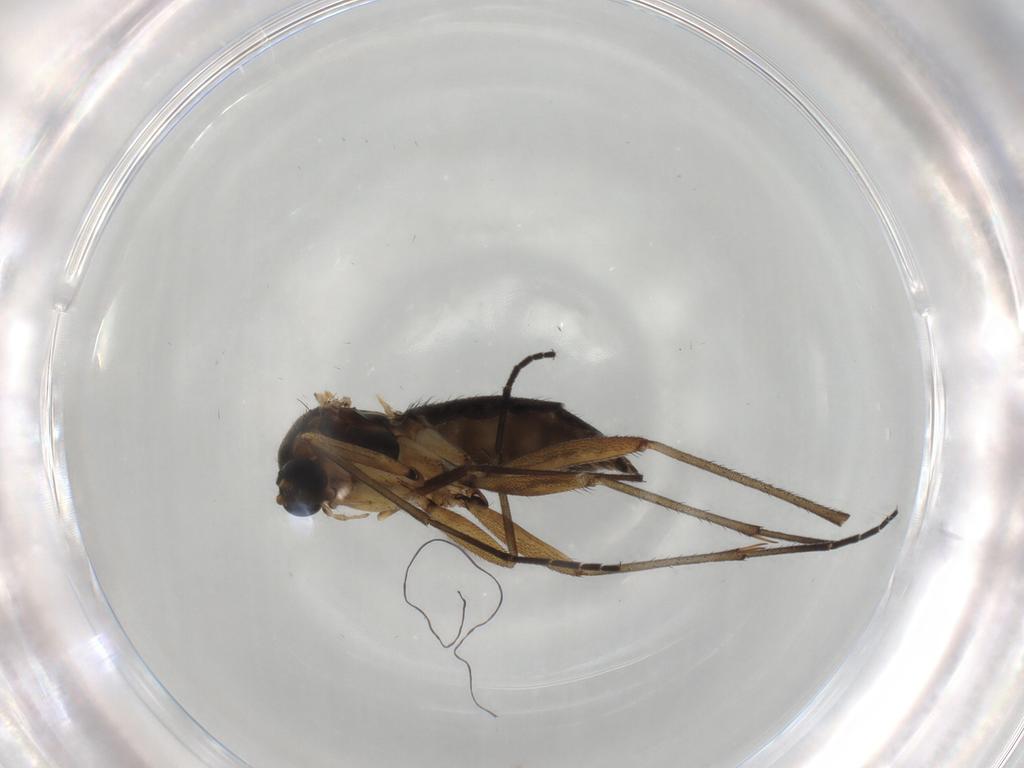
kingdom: Animalia
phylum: Arthropoda
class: Insecta
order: Diptera
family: Sciaridae
